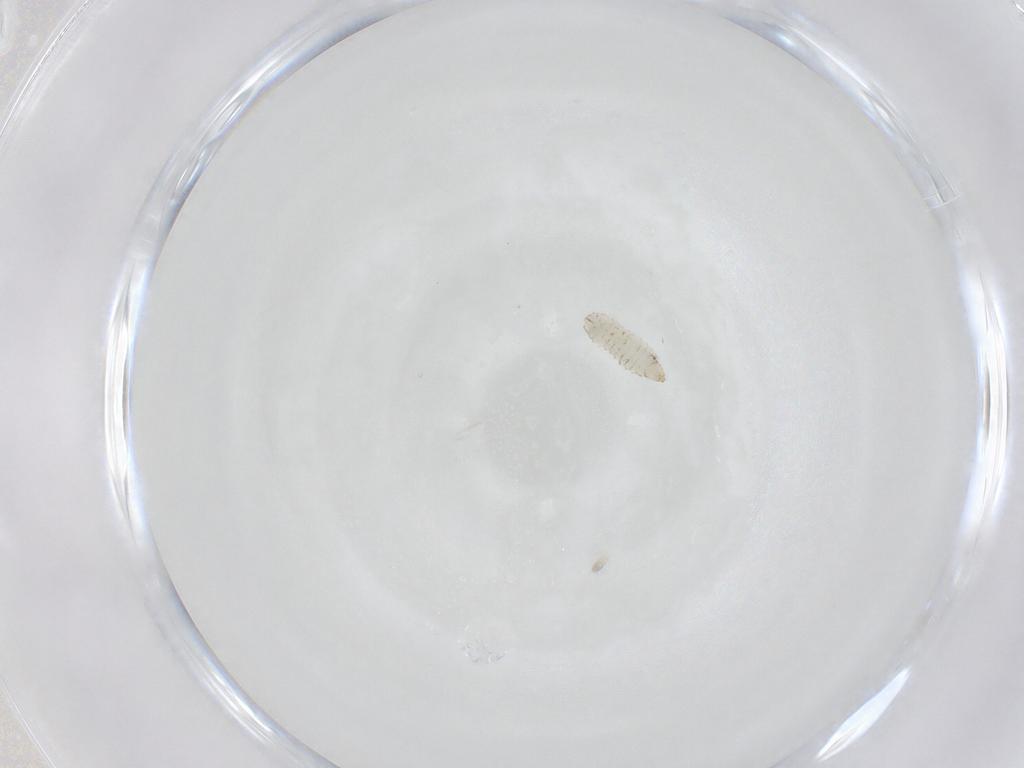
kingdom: Animalia
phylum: Arthropoda
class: Insecta
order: Diptera
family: Stratiomyidae
